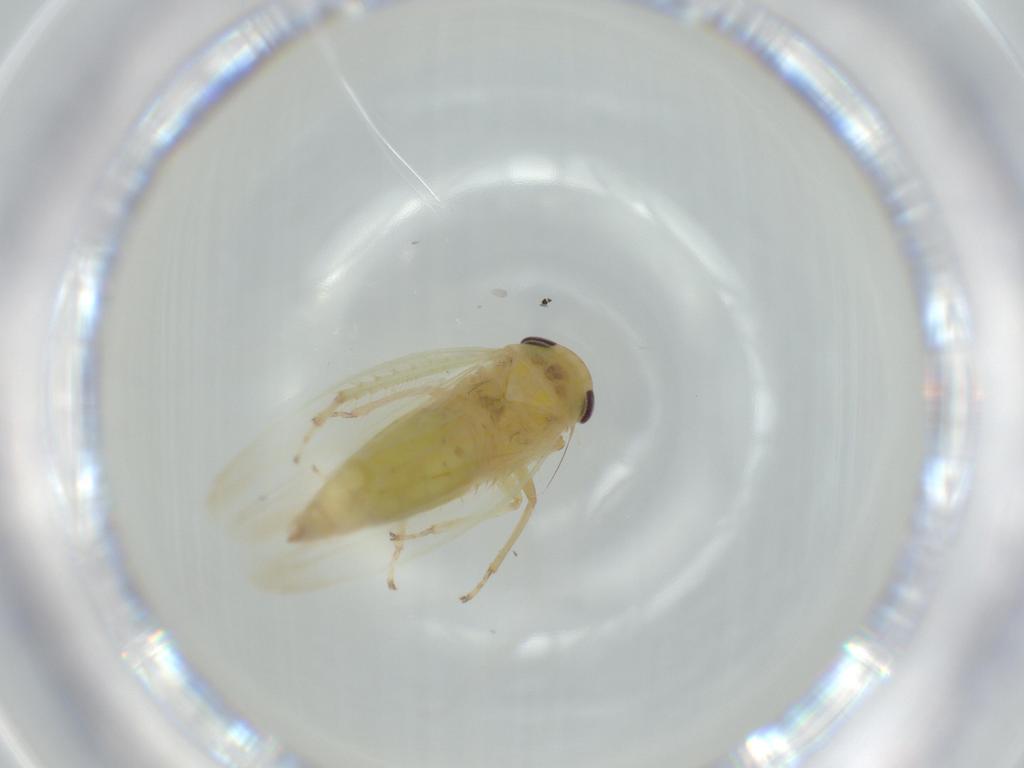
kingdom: Animalia
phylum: Arthropoda
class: Insecta
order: Hemiptera
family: Cicadellidae
